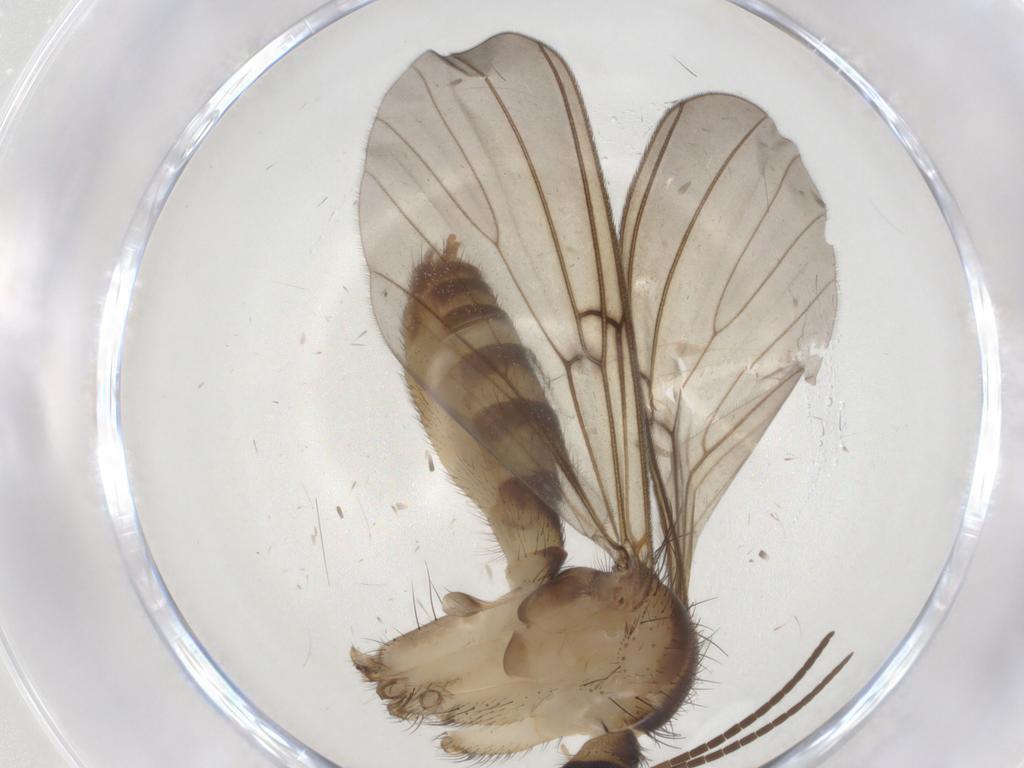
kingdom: Animalia
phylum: Arthropoda
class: Insecta
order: Diptera
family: Mycetophilidae
